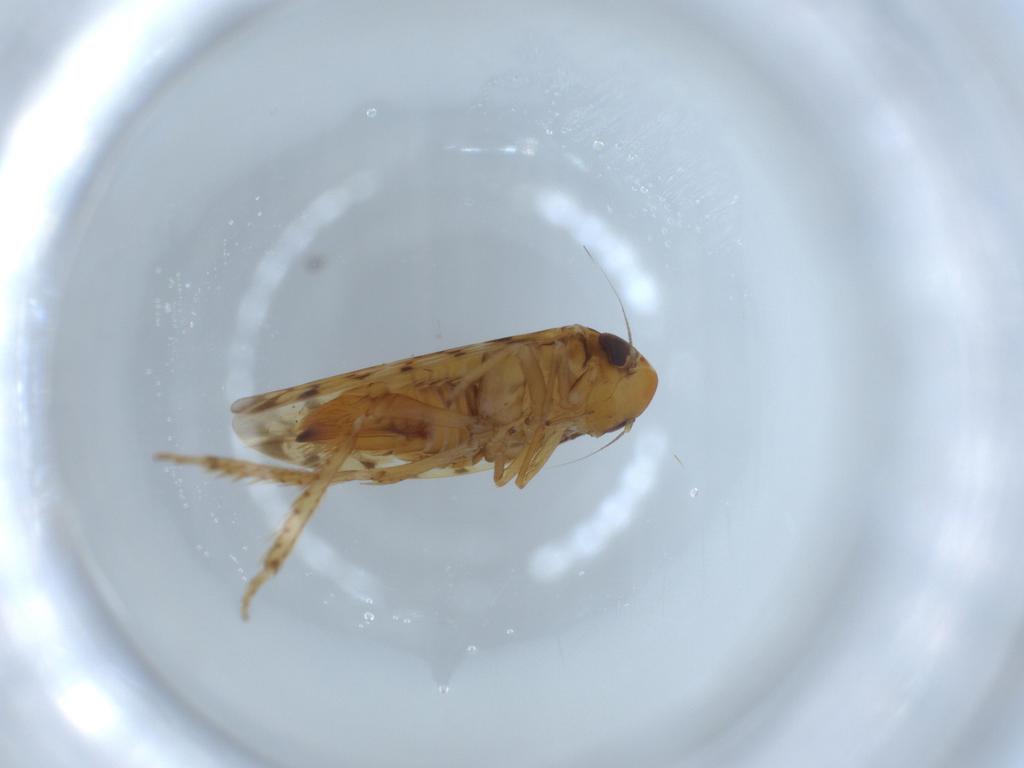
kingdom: Animalia
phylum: Arthropoda
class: Insecta
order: Hemiptera
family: Cicadellidae
